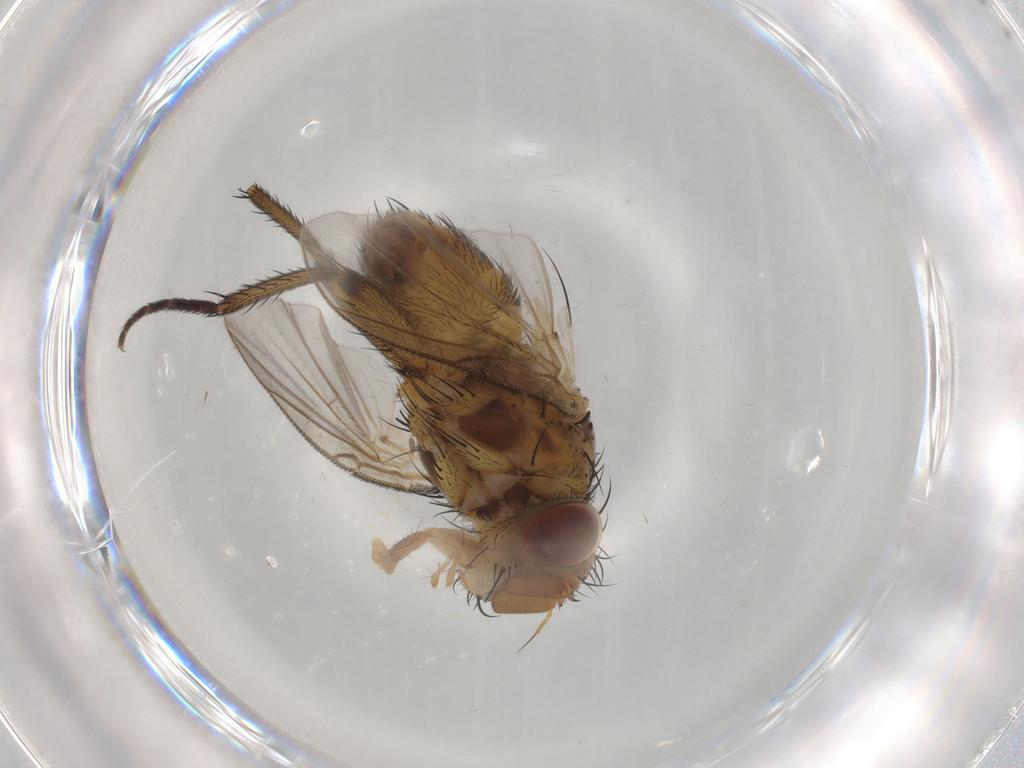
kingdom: Animalia
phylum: Arthropoda
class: Insecta
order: Diptera
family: Tachinidae
